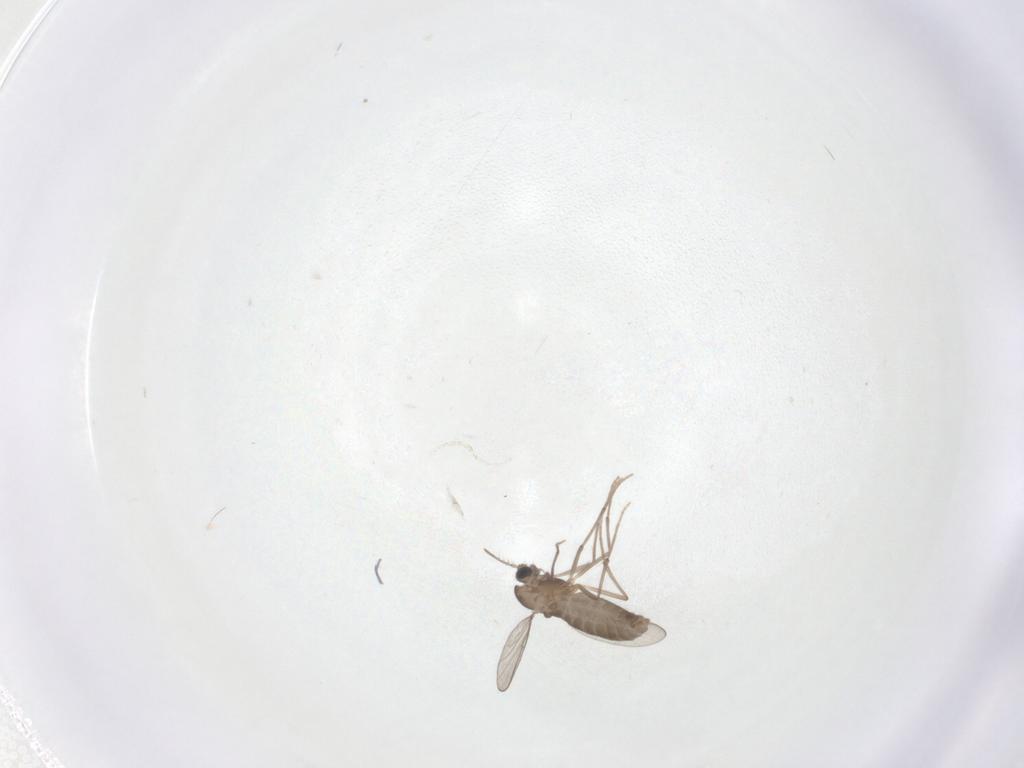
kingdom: Animalia
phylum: Arthropoda
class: Insecta
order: Diptera
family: Chironomidae
